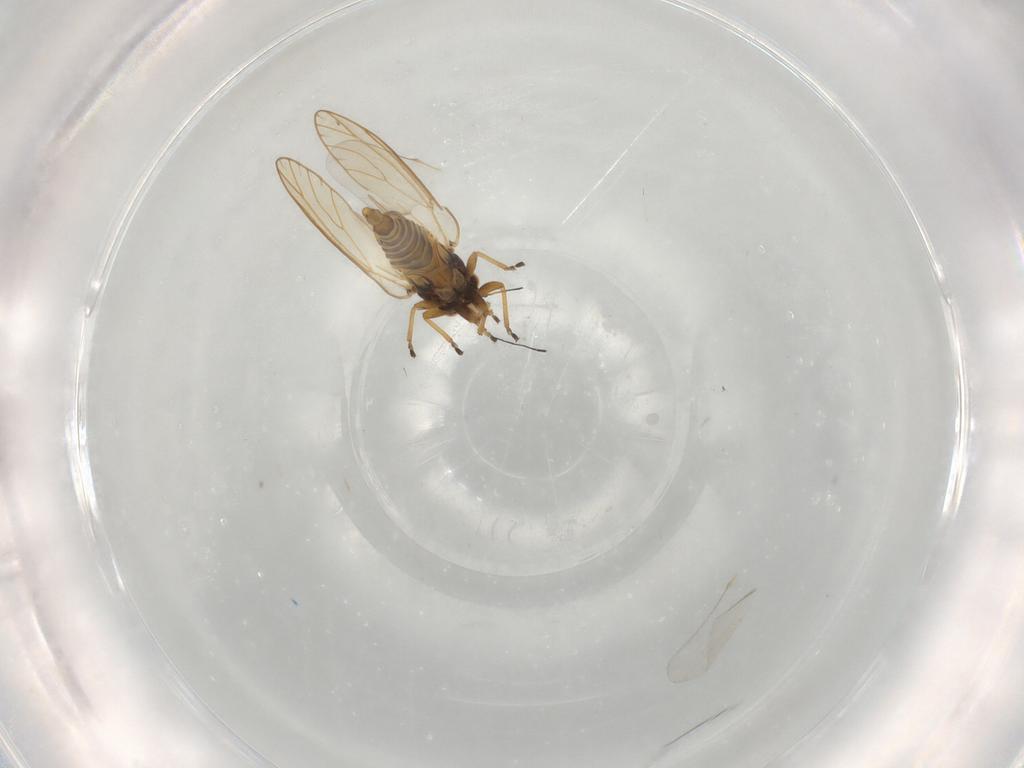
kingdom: Animalia
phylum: Arthropoda
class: Insecta
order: Hemiptera
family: Triozidae
